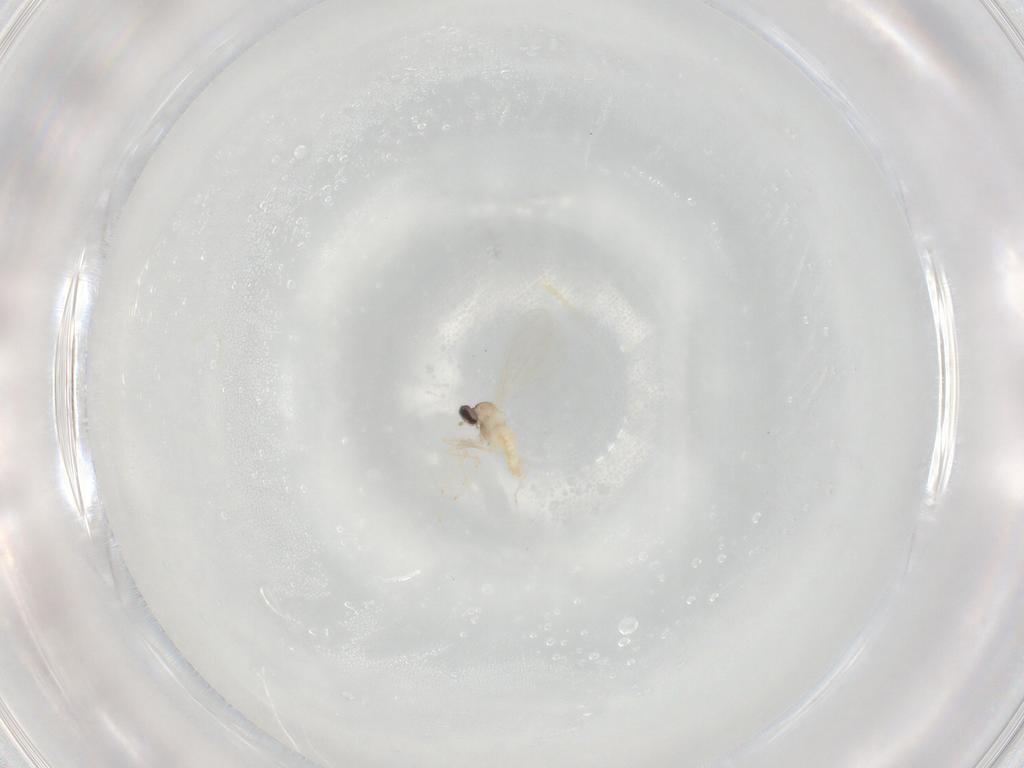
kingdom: Animalia
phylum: Arthropoda
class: Insecta
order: Diptera
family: Cecidomyiidae
